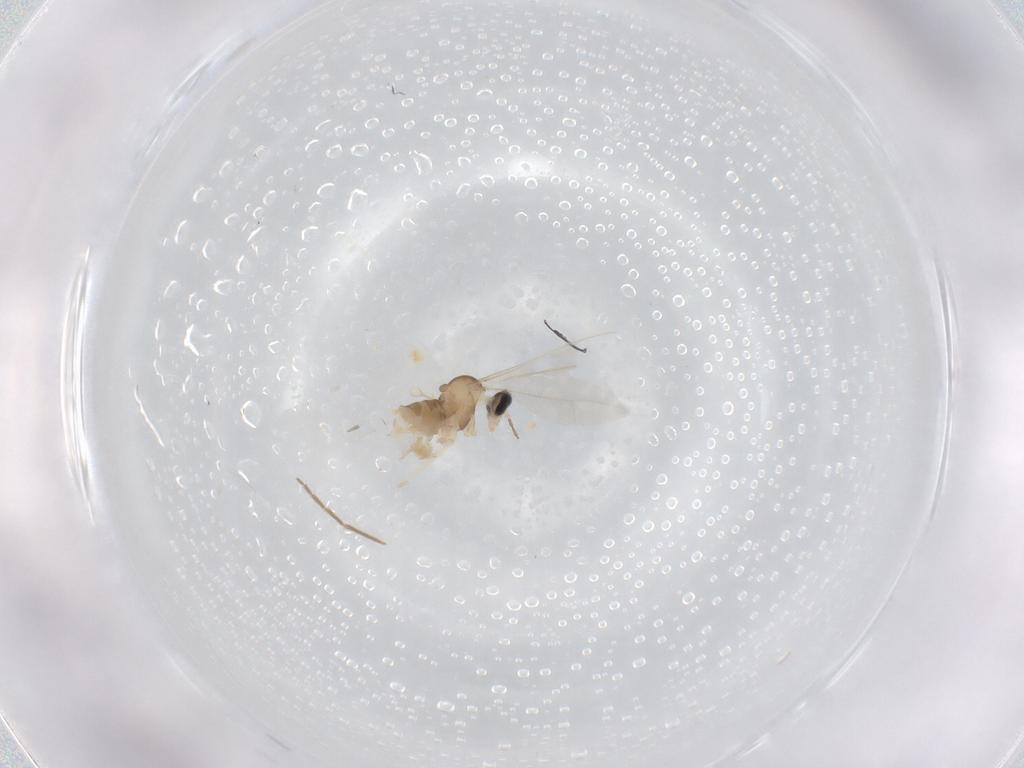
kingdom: Animalia
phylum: Arthropoda
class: Insecta
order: Diptera
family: Cecidomyiidae
